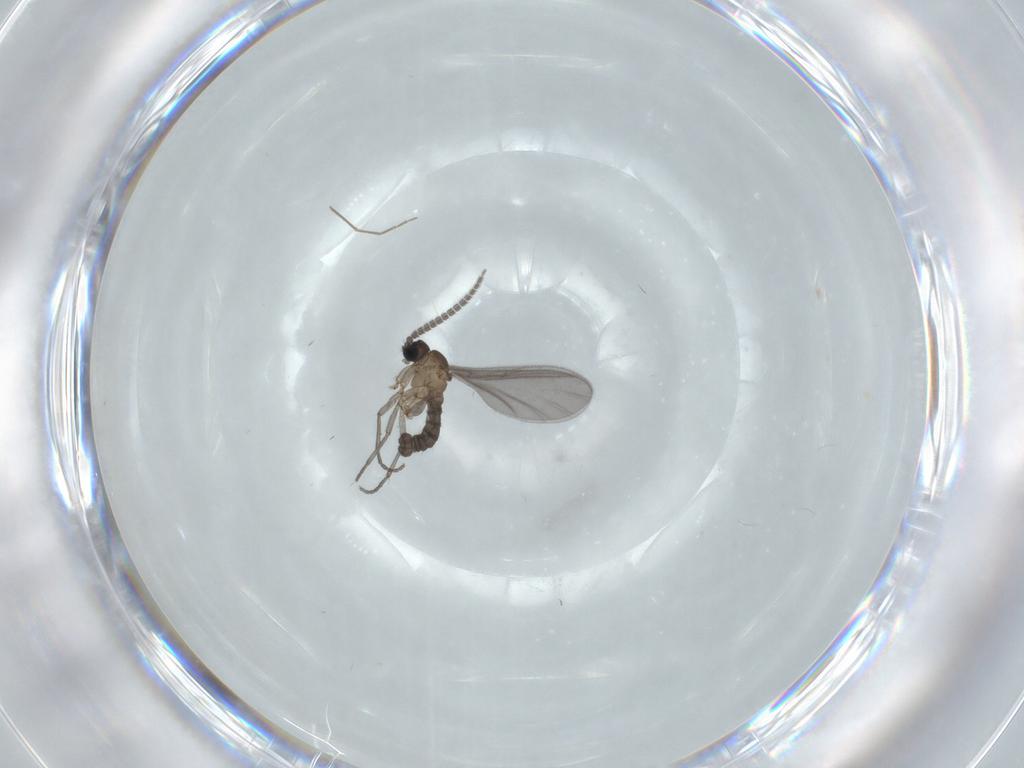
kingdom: Animalia
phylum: Arthropoda
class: Insecta
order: Diptera
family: Sciaridae
